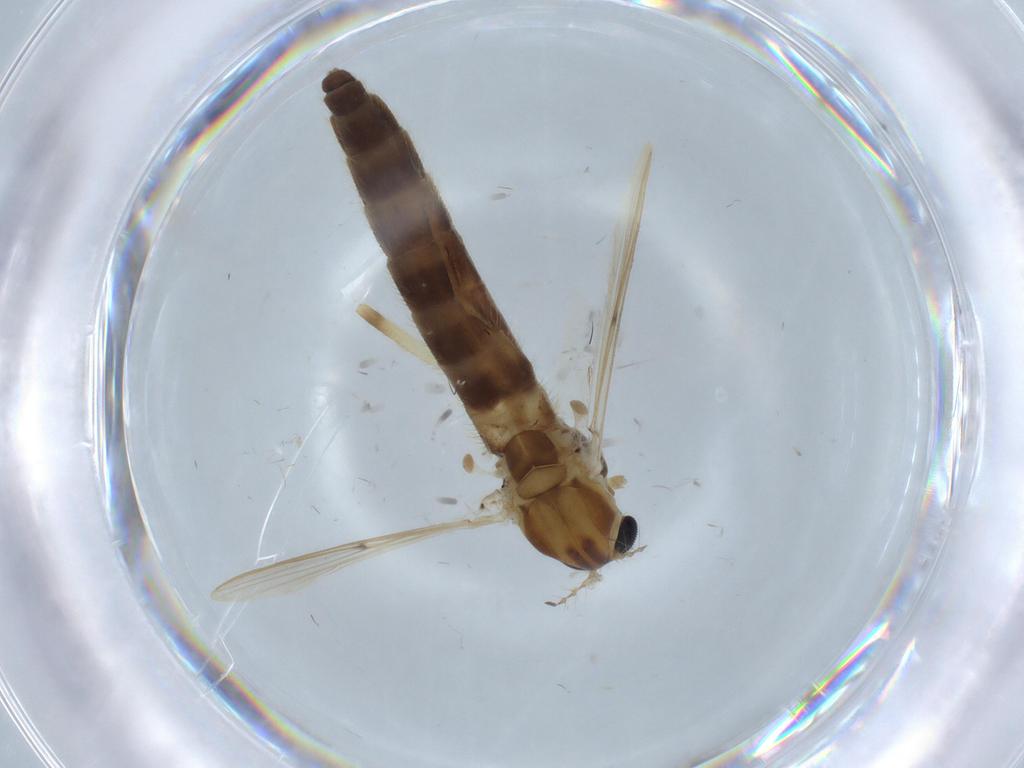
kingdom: Animalia
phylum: Arthropoda
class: Insecta
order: Diptera
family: Chironomidae
